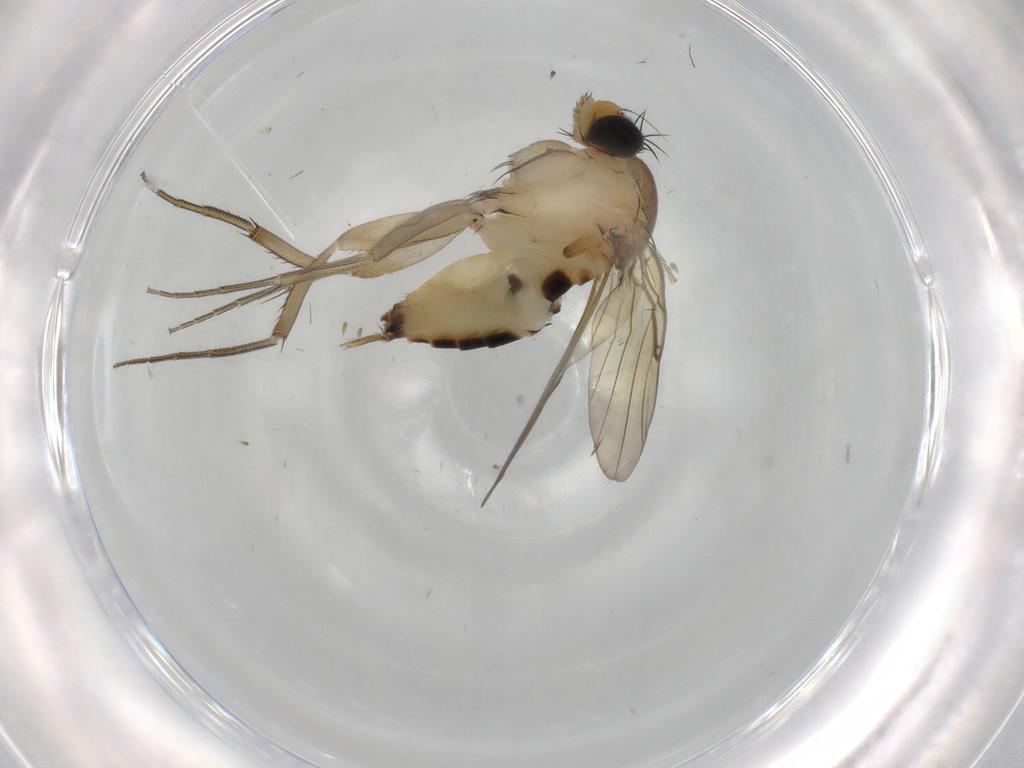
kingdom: Animalia
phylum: Arthropoda
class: Insecta
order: Diptera
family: Phoridae
